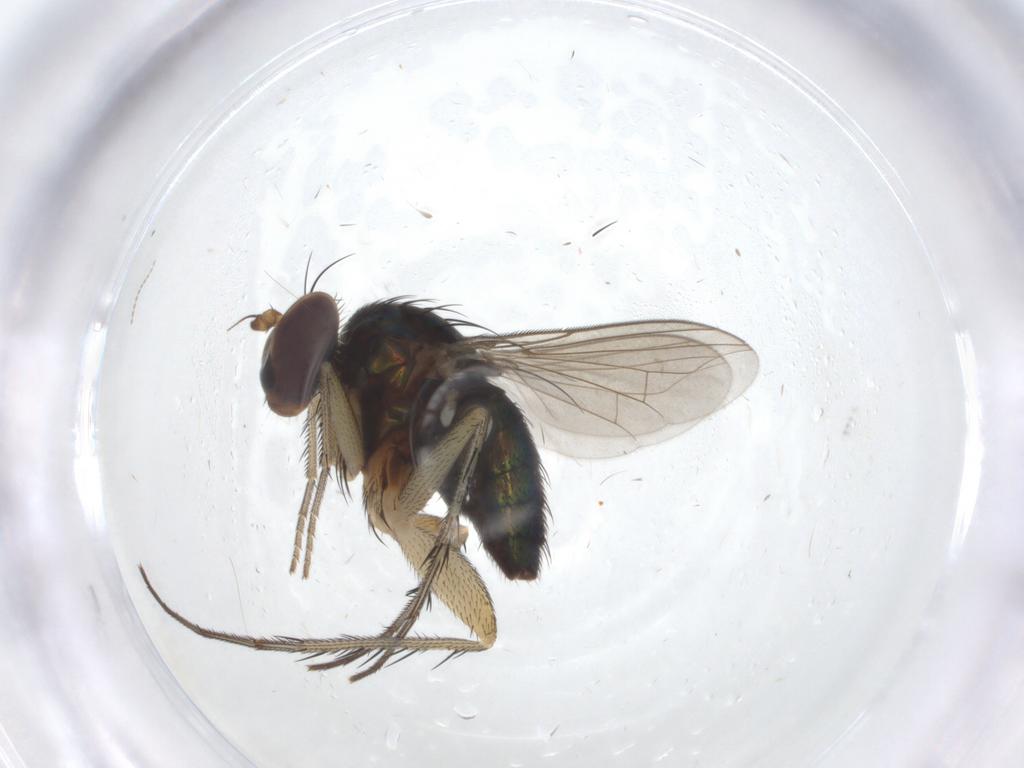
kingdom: Animalia
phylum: Arthropoda
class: Insecta
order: Diptera
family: Dolichopodidae
